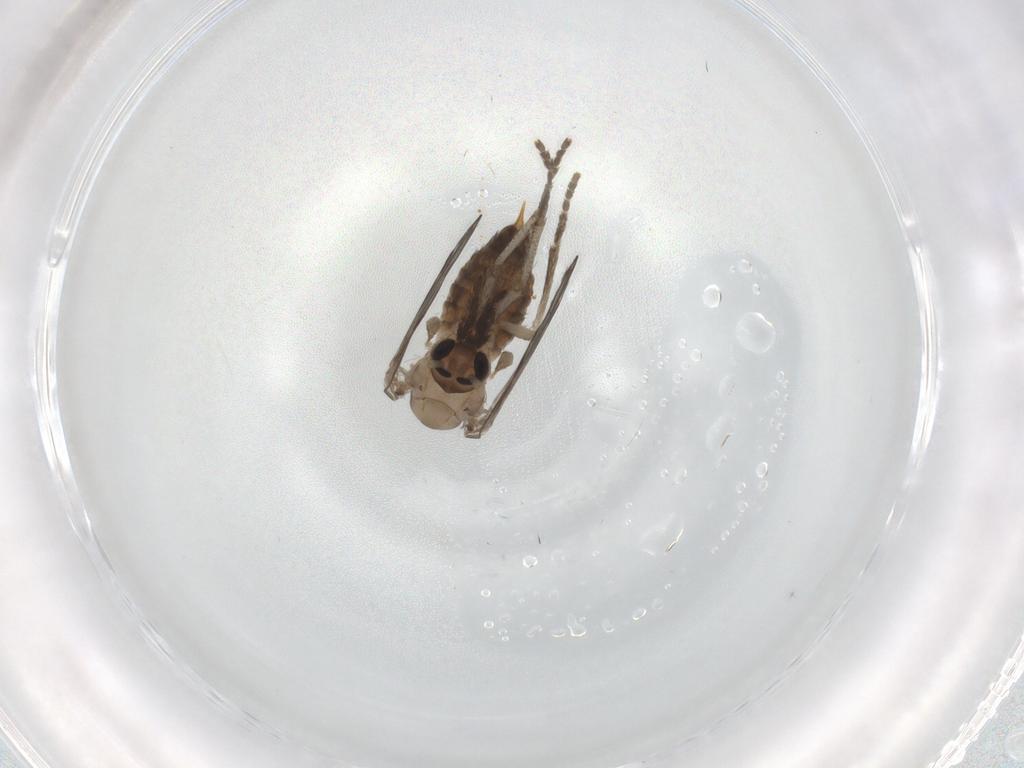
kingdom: Animalia
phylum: Arthropoda
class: Insecta
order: Diptera
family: Psychodidae
